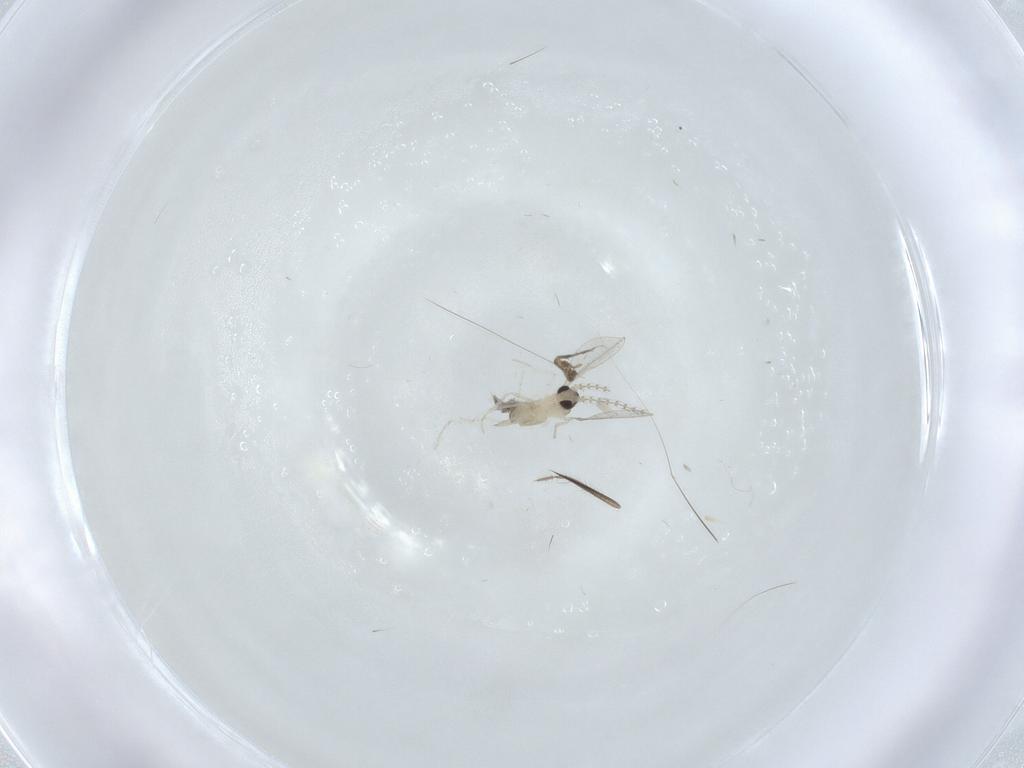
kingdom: Animalia
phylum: Arthropoda
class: Insecta
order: Diptera
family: Cecidomyiidae
